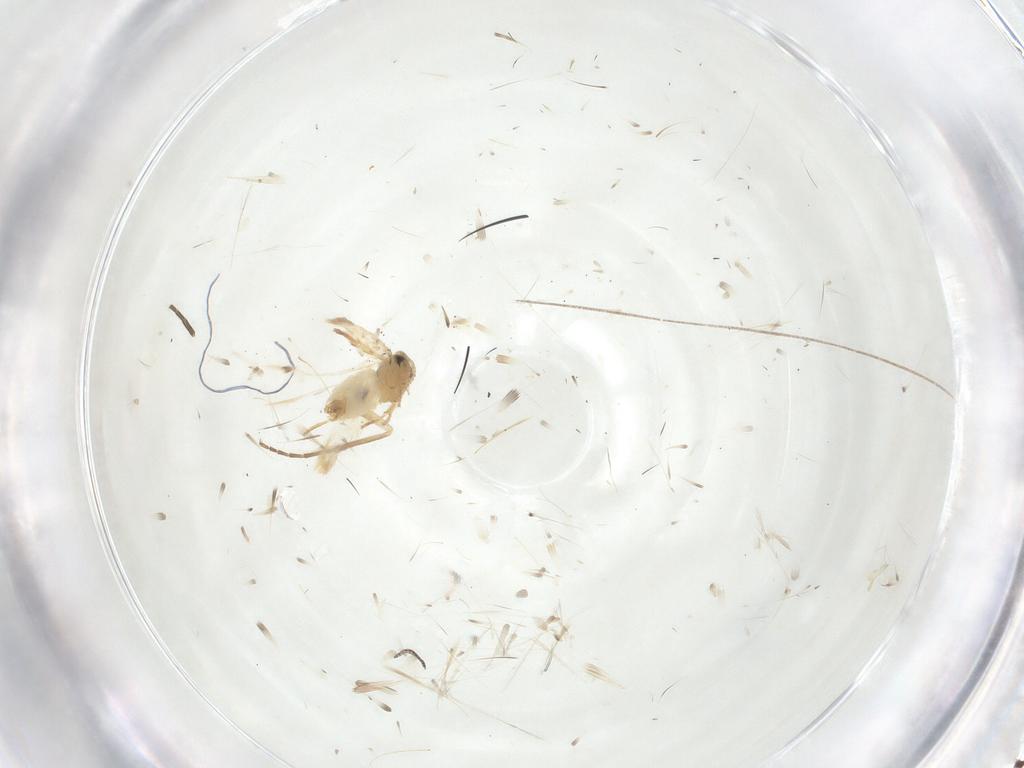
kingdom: Animalia
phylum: Arthropoda
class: Insecta
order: Lepidoptera
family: Crambidae
